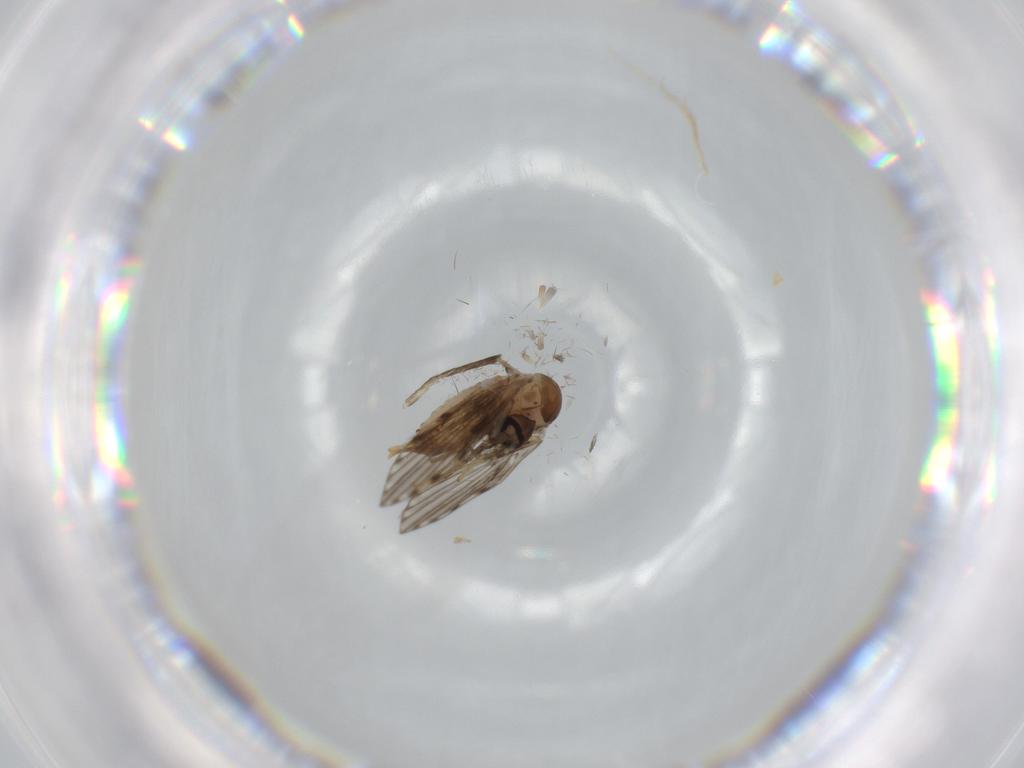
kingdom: Animalia
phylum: Arthropoda
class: Insecta
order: Diptera
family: Psychodidae
